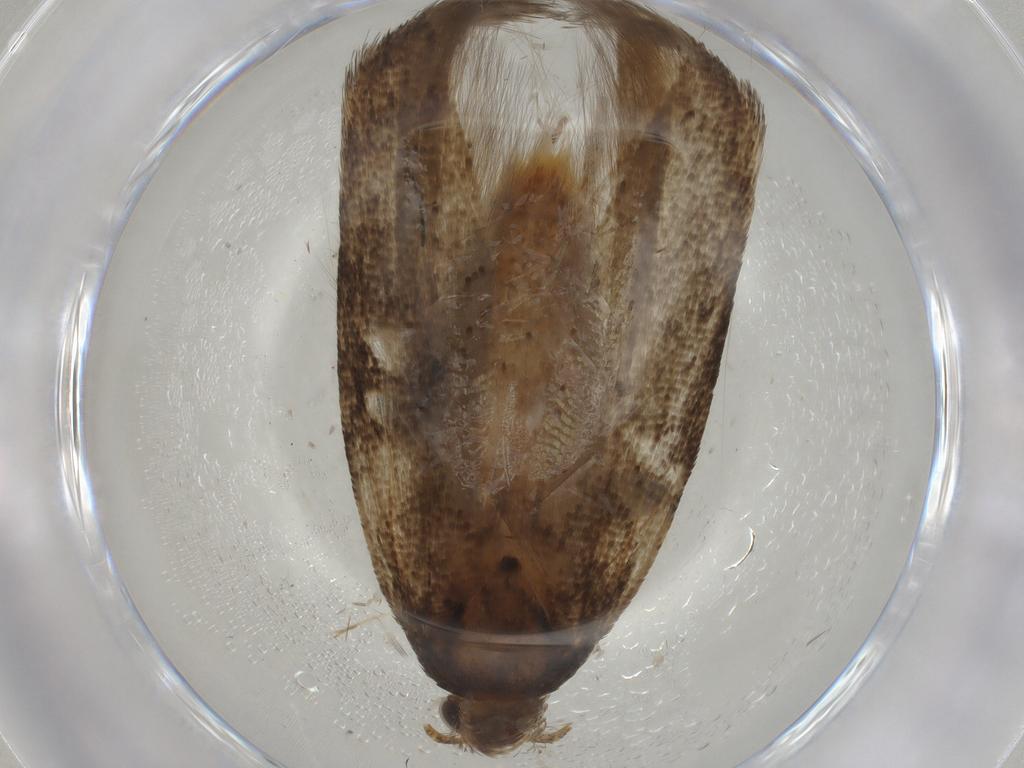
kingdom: Animalia
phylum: Arthropoda
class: Insecta
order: Lepidoptera
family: Gelechiidae
